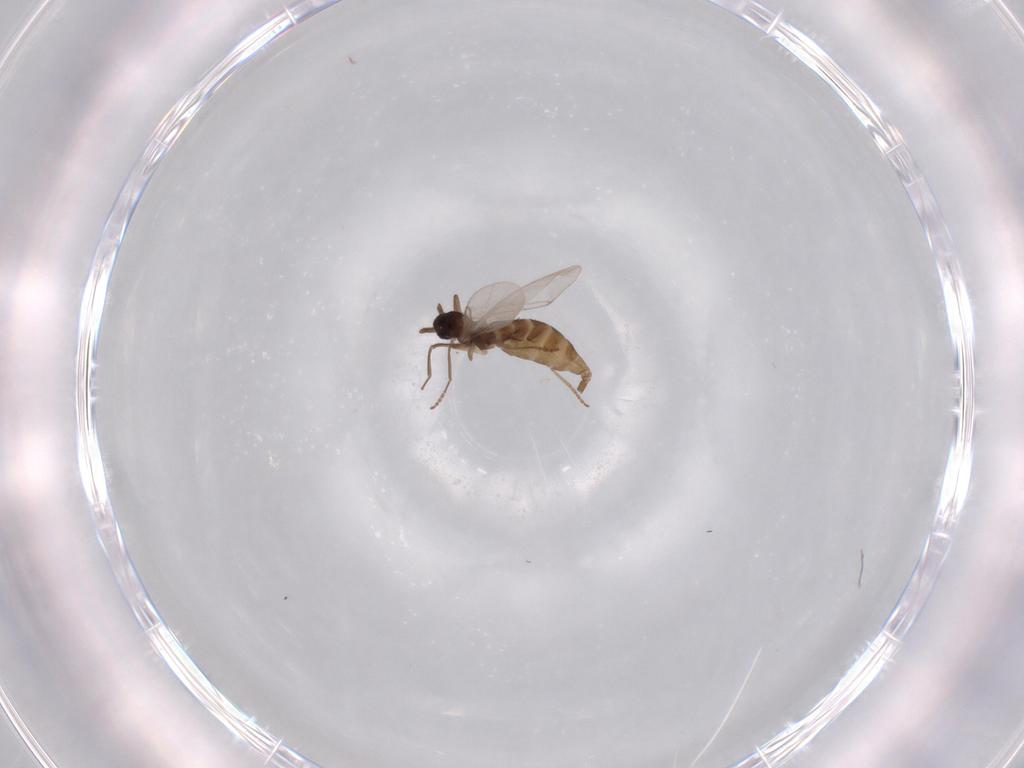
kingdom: Animalia
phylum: Arthropoda
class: Insecta
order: Diptera
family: Cecidomyiidae
